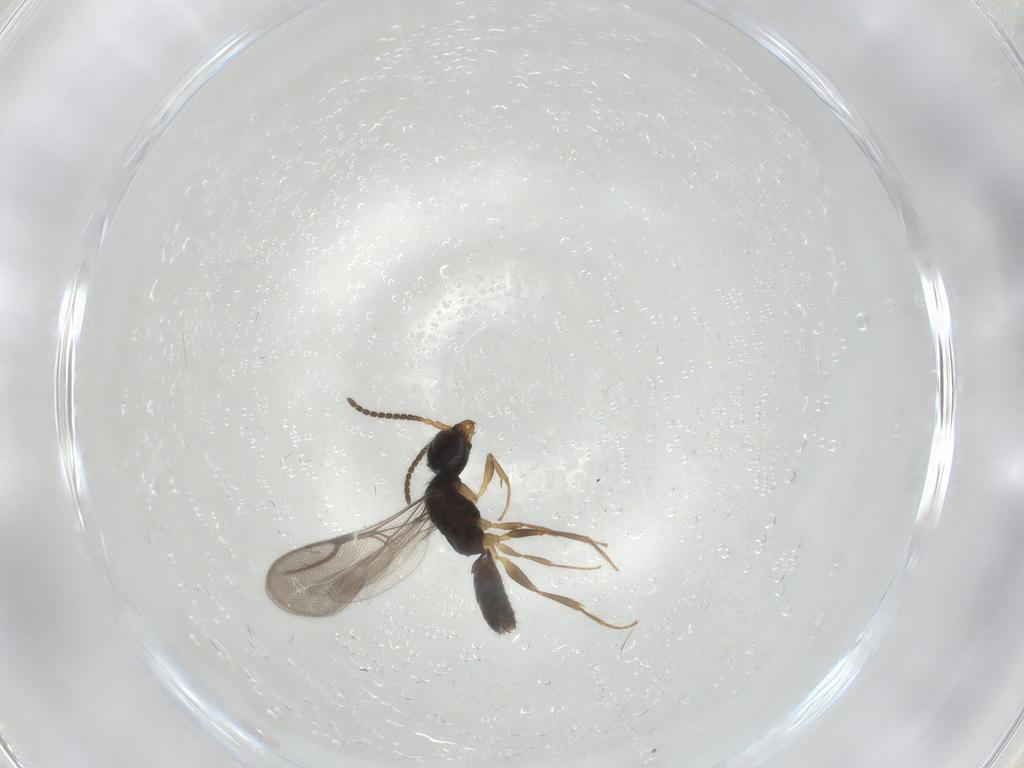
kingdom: Animalia
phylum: Arthropoda
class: Insecta
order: Hymenoptera
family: Bethylidae
